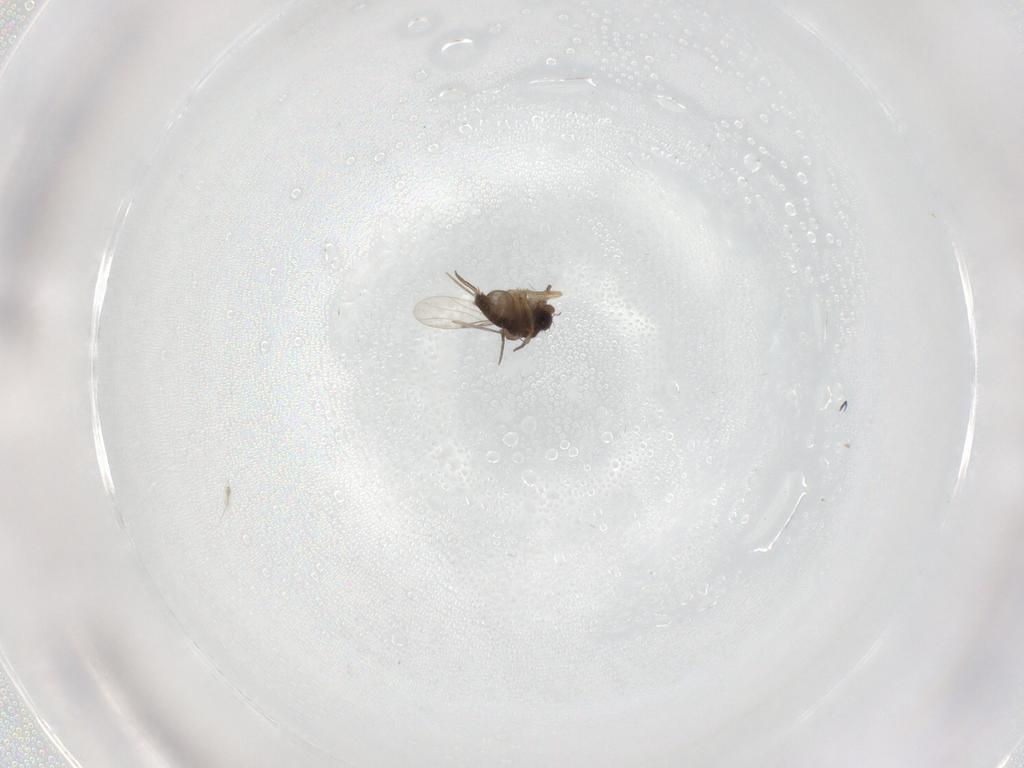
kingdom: Animalia
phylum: Arthropoda
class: Insecta
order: Diptera
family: Phoridae
